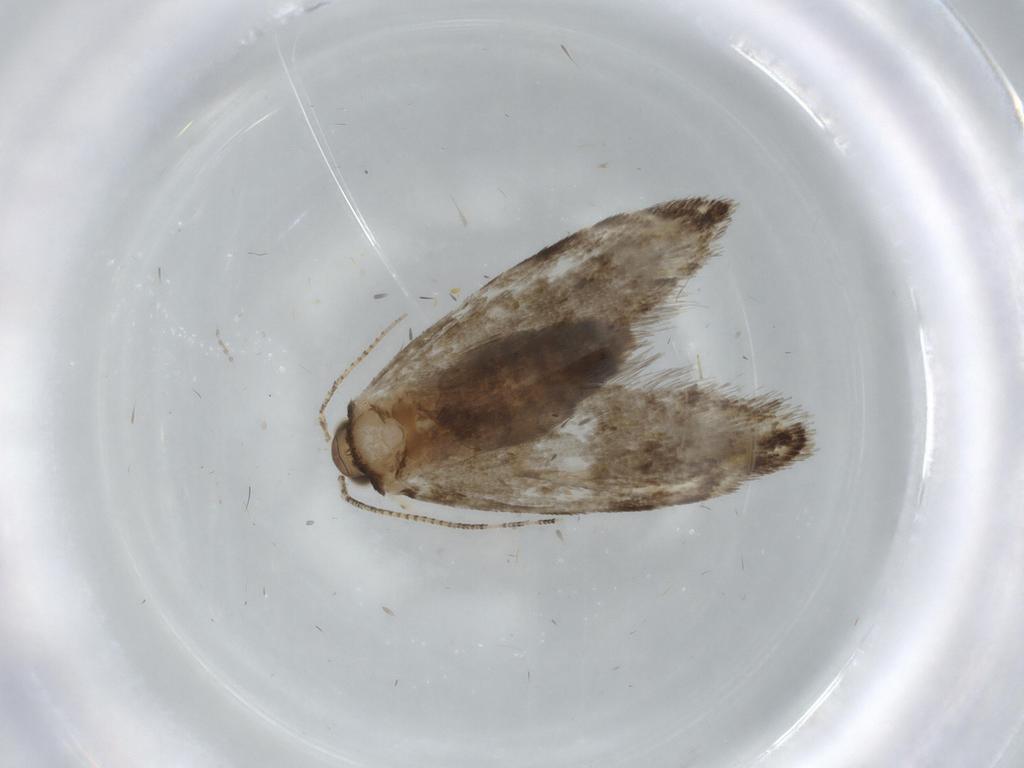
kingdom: Animalia
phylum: Arthropoda
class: Insecta
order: Lepidoptera
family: Tineidae
